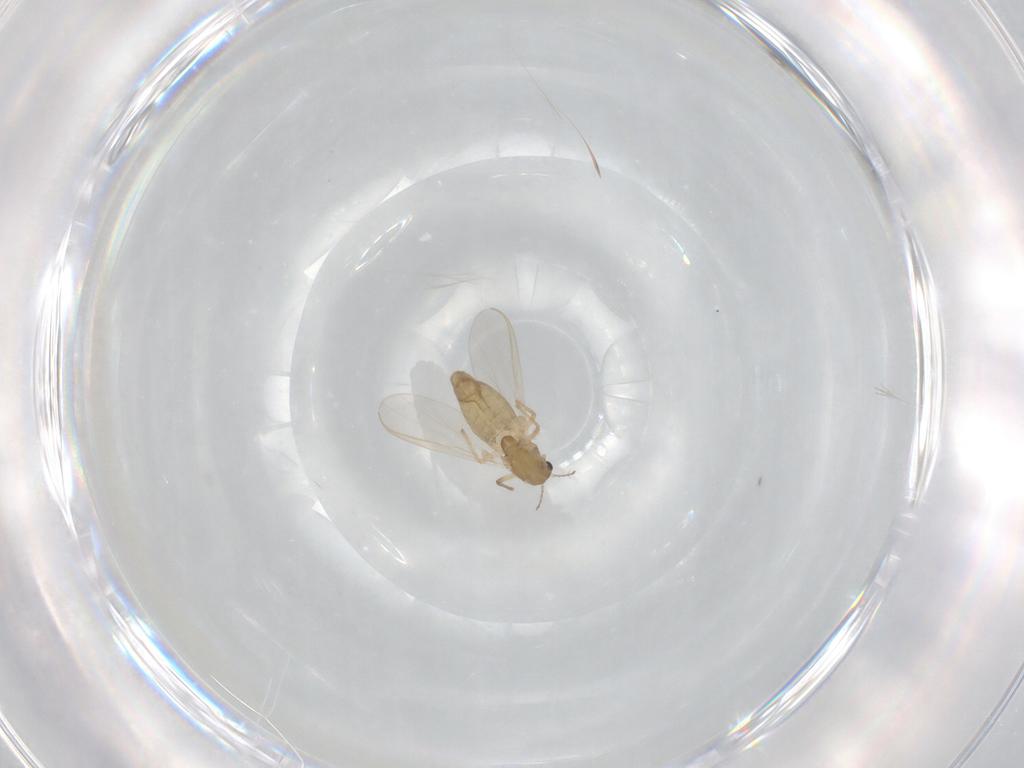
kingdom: Animalia
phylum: Arthropoda
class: Insecta
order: Diptera
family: Chironomidae
